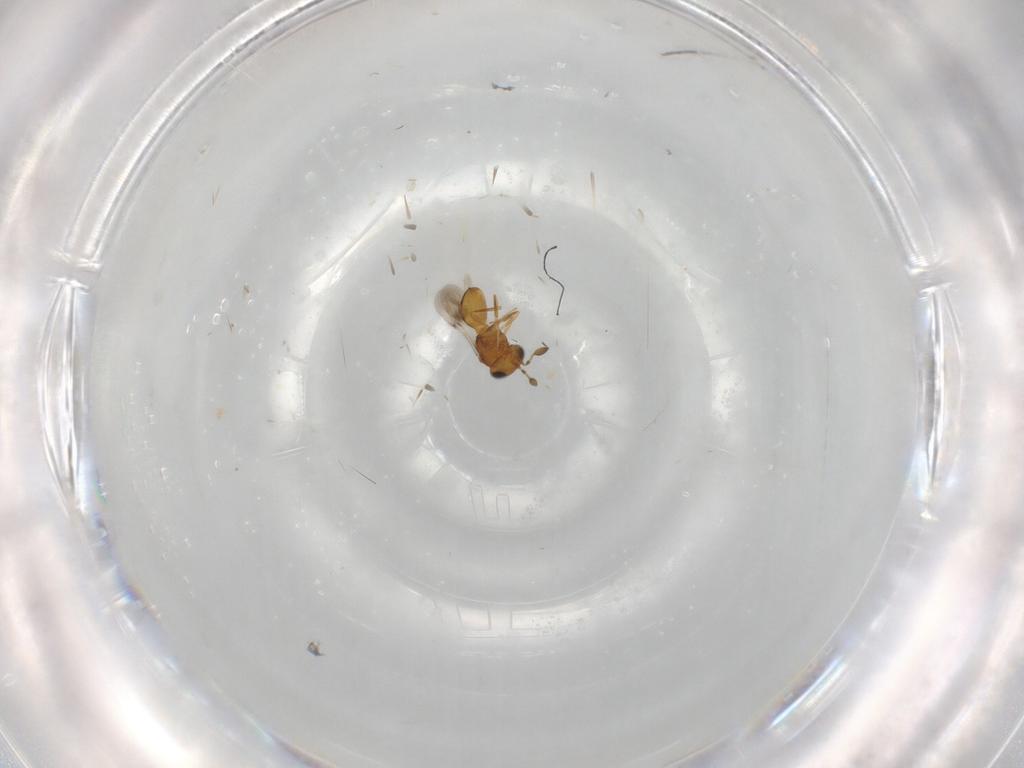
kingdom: Animalia
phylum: Arthropoda
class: Insecta
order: Hymenoptera
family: Scelionidae
